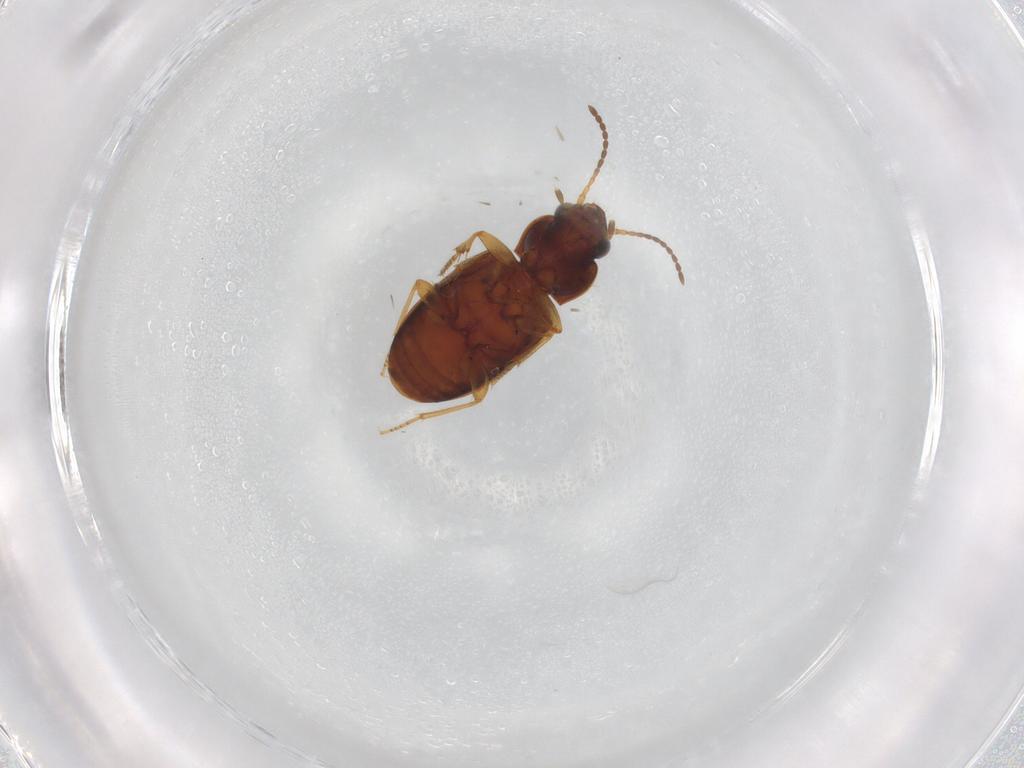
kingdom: Animalia
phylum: Arthropoda
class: Insecta
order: Coleoptera
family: Carabidae
